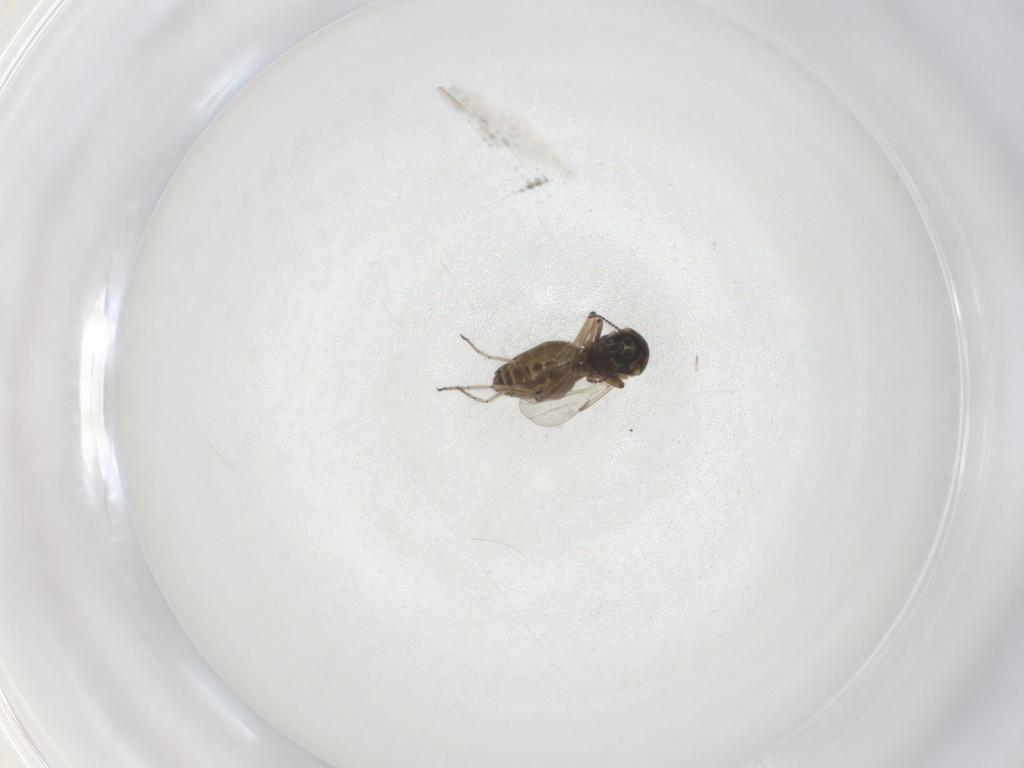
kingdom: Animalia
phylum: Arthropoda
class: Insecta
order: Diptera
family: Ceratopogonidae
